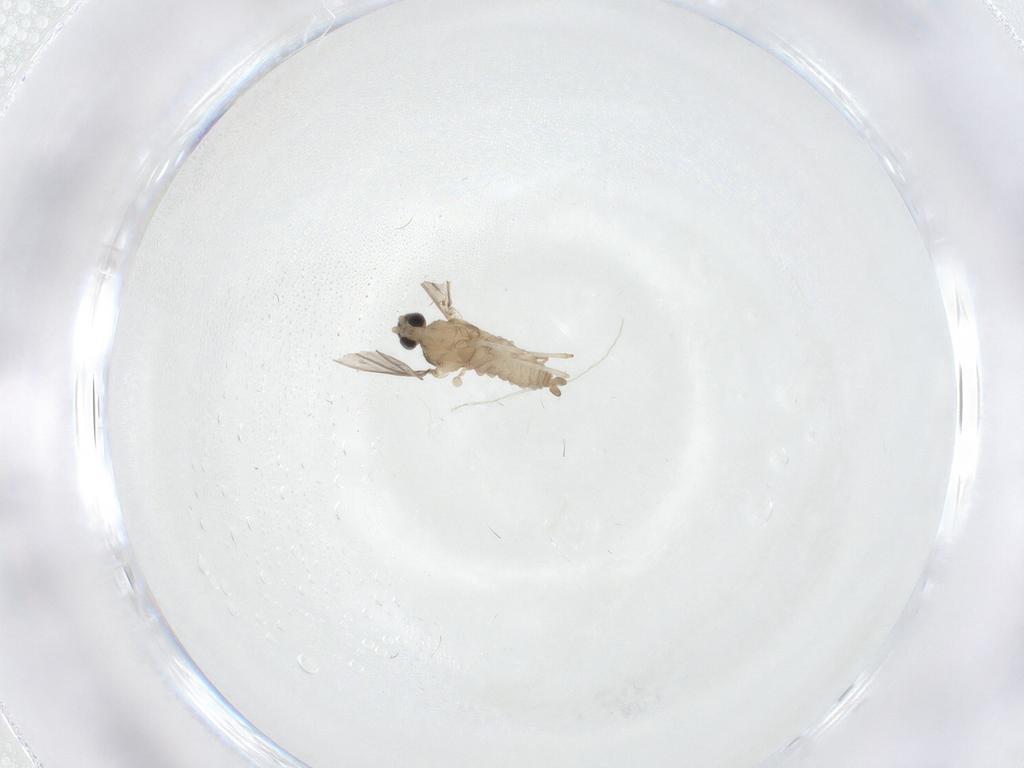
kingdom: Animalia
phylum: Arthropoda
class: Insecta
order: Diptera
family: Cecidomyiidae
